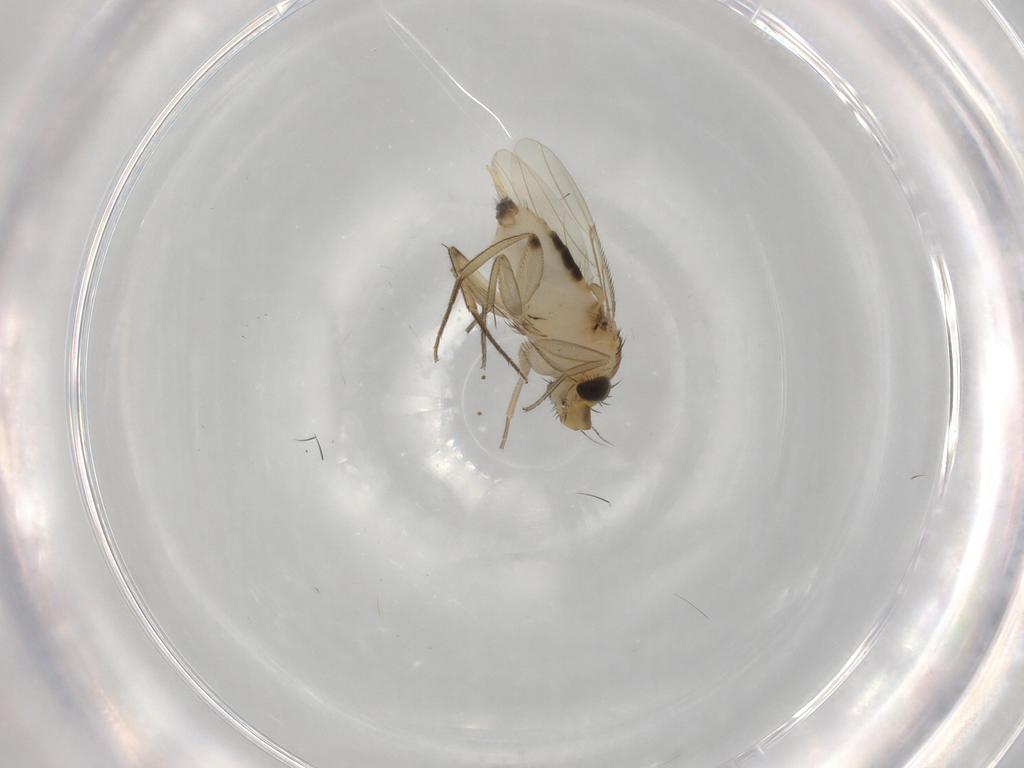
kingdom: Animalia
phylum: Arthropoda
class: Insecta
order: Diptera
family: Phoridae
